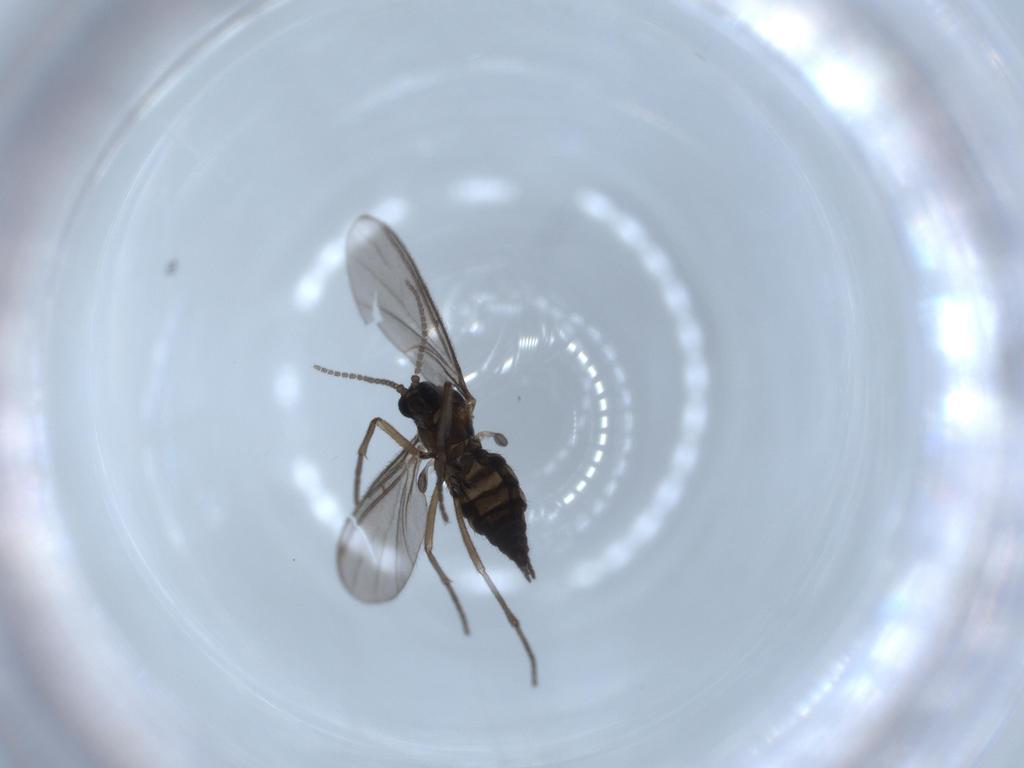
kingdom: Animalia
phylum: Arthropoda
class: Insecta
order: Diptera
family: Sciaridae
